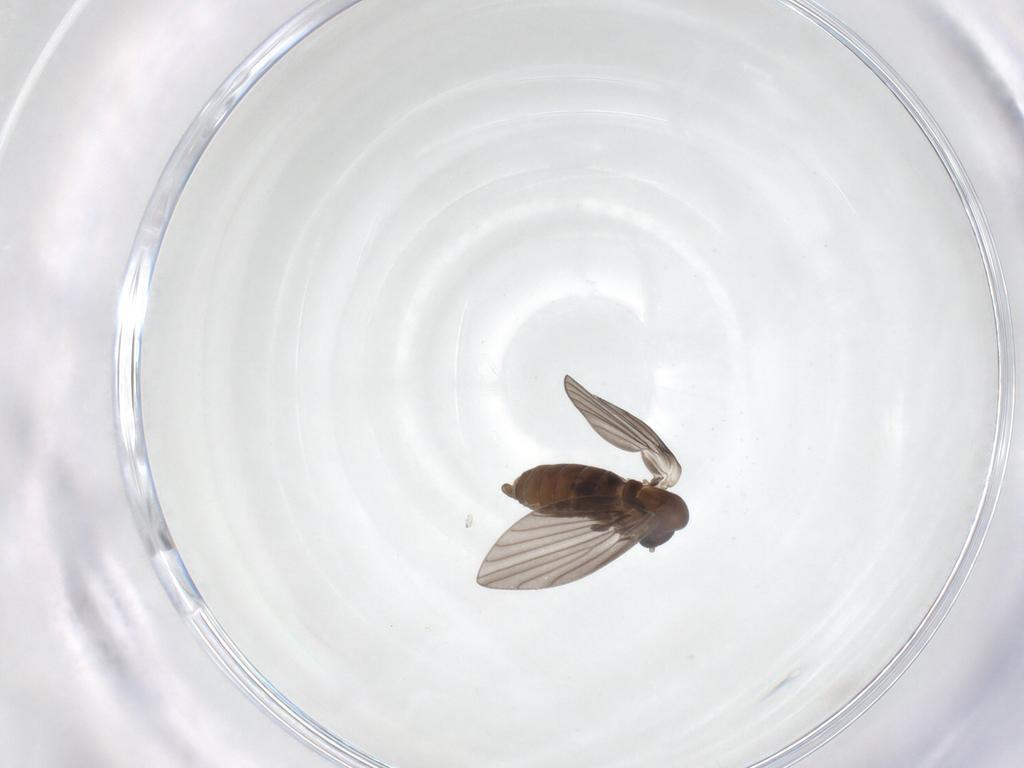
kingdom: Animalia
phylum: Arthropoda
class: Insecta
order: Diptera
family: Psychodidae
